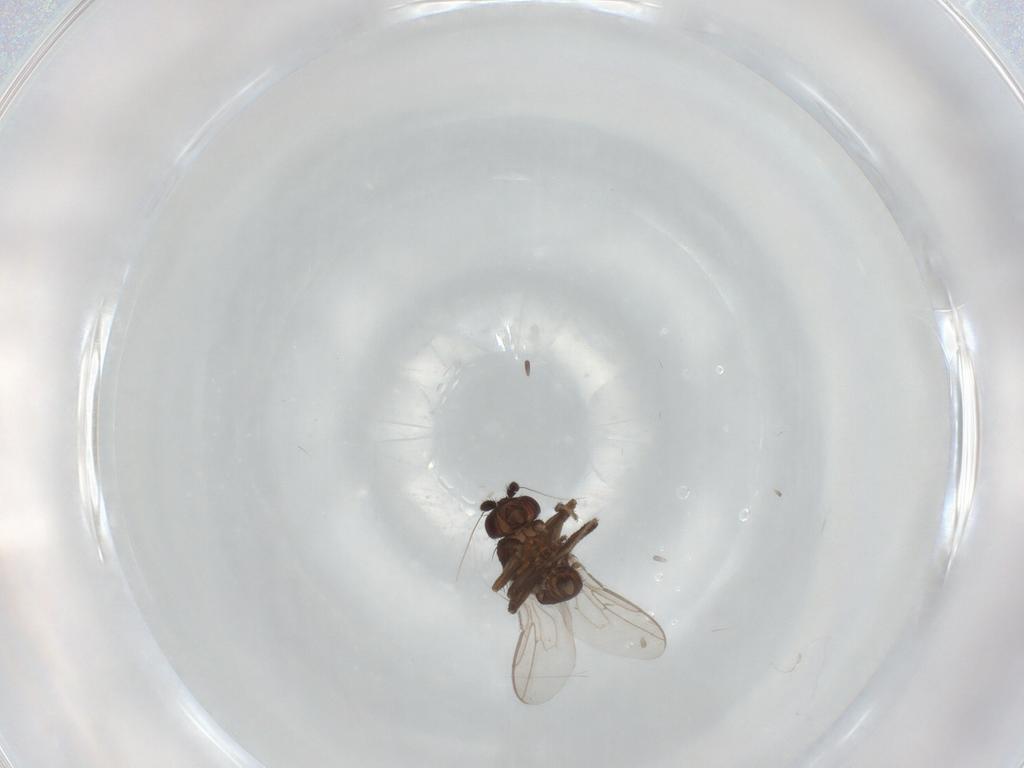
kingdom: Animalia
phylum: Arthropoda
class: Insecta
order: Diptera
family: Sphaeroceridae
